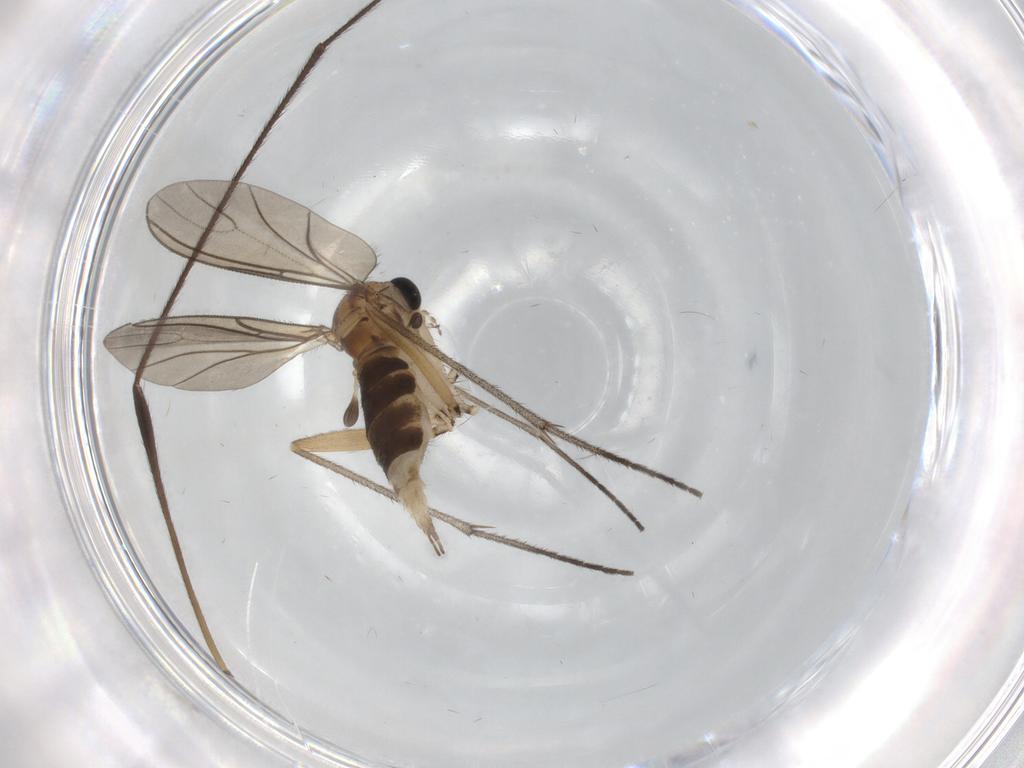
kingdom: Animalia
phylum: Arthropoda
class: Insecta
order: Diptera
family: Sciaridae
